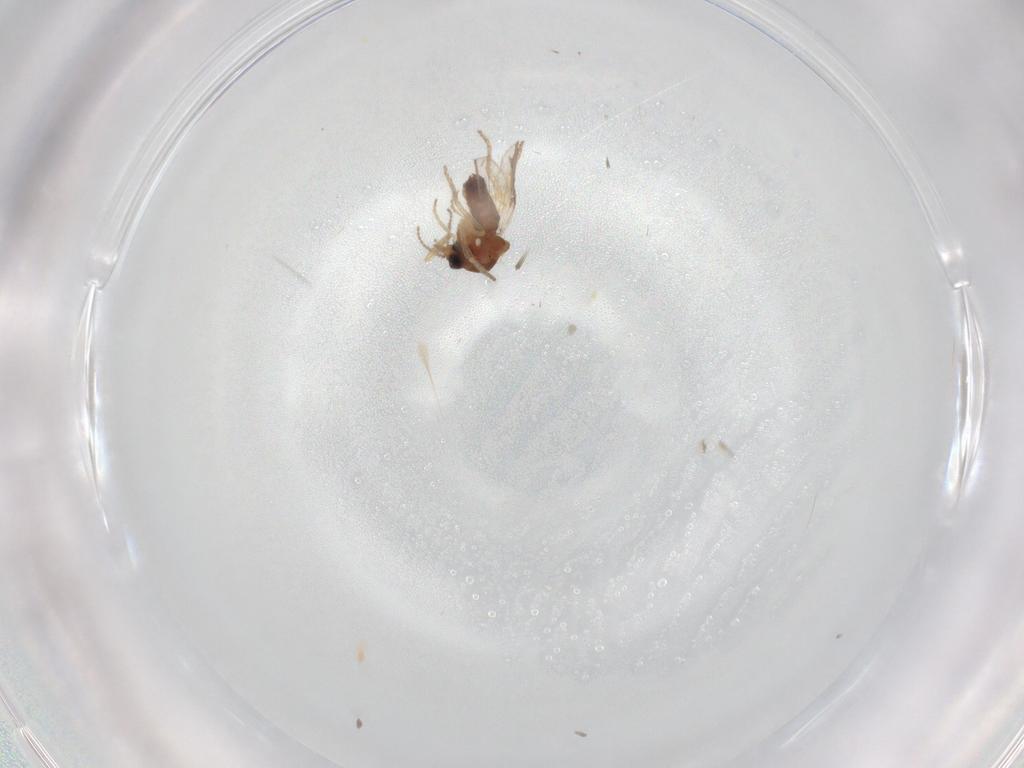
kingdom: Animalia
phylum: Arthropoda
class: Insecta
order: Diptera
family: Ceratopogonidae
